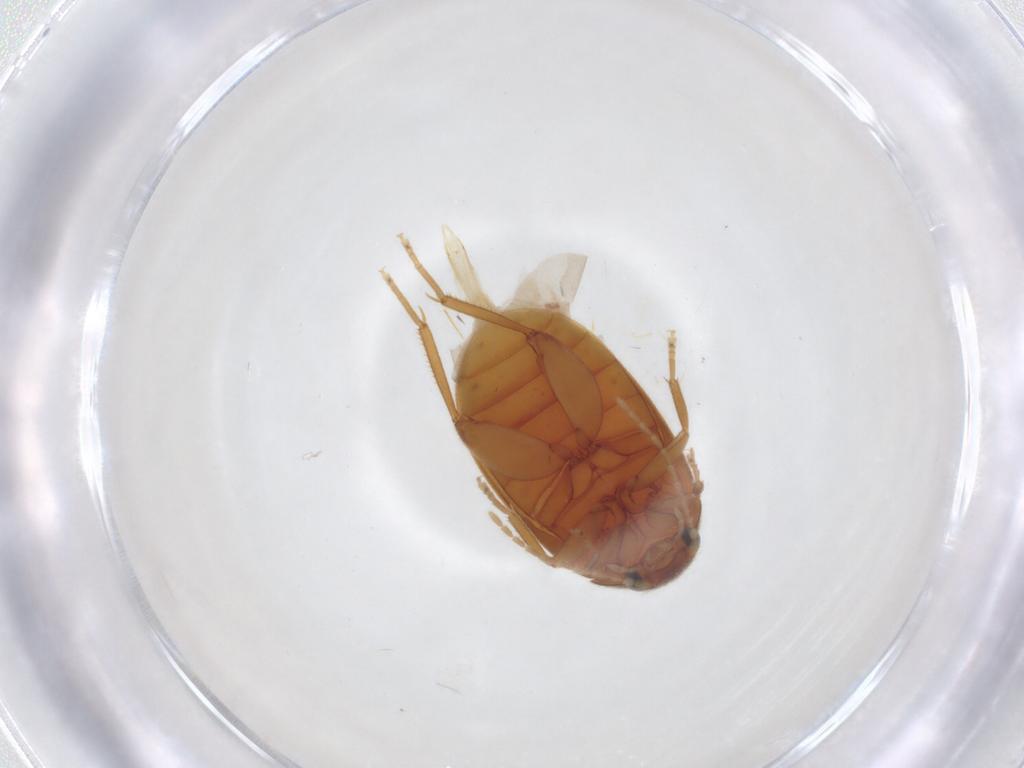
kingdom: Animalia
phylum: Arthropoda
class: Insecta
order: Coleoptera
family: Scirtidae
